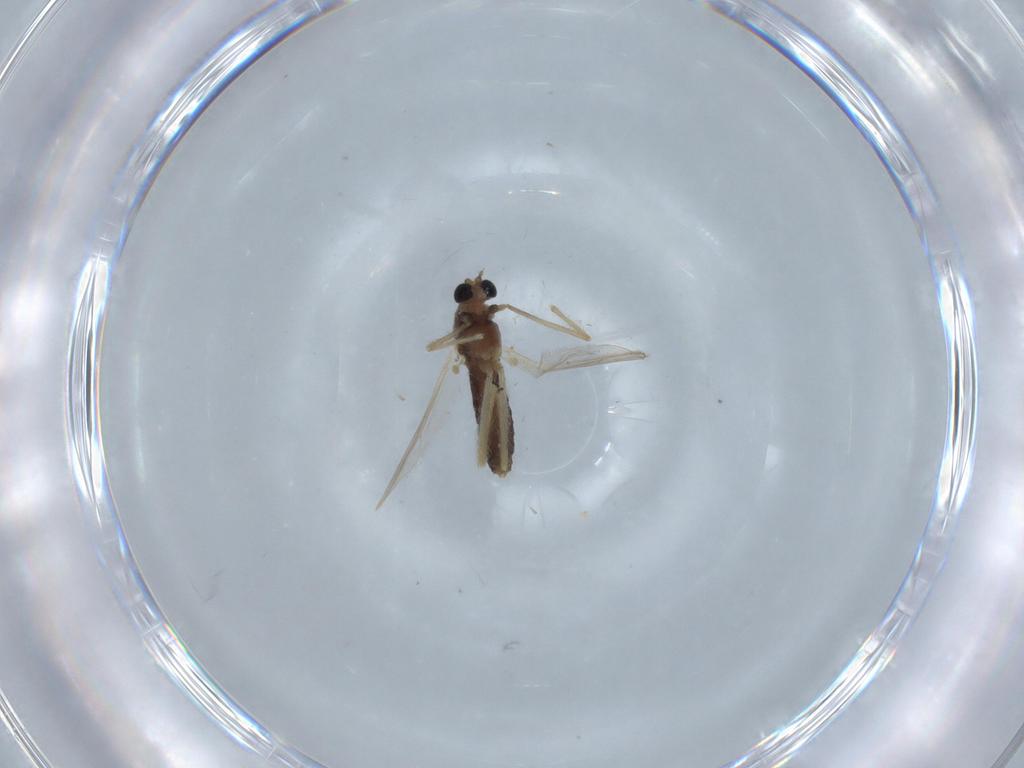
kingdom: Animalia
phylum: Arthropoda
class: Insecta
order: Diptera
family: Chironomidae
